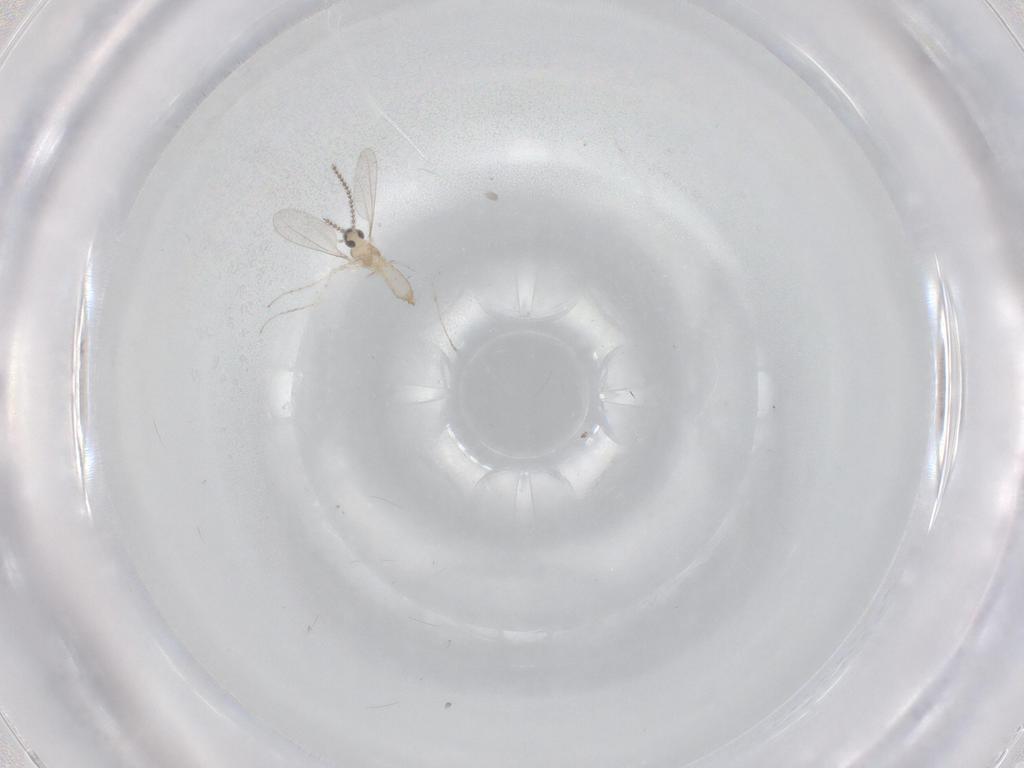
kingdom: Animalia
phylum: Arthropoda
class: Insecta
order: Diptera
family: Cecidomyiidae
